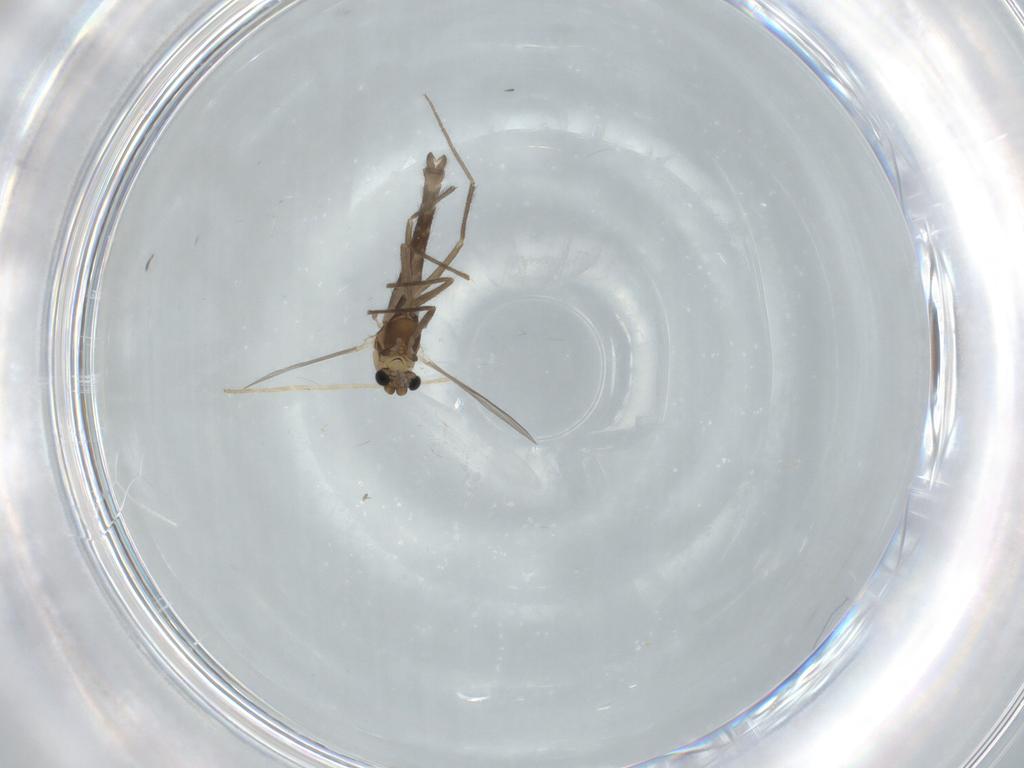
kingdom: Animalia
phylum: Arthropoda
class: Insecta
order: Diptera
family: Chironomidae
